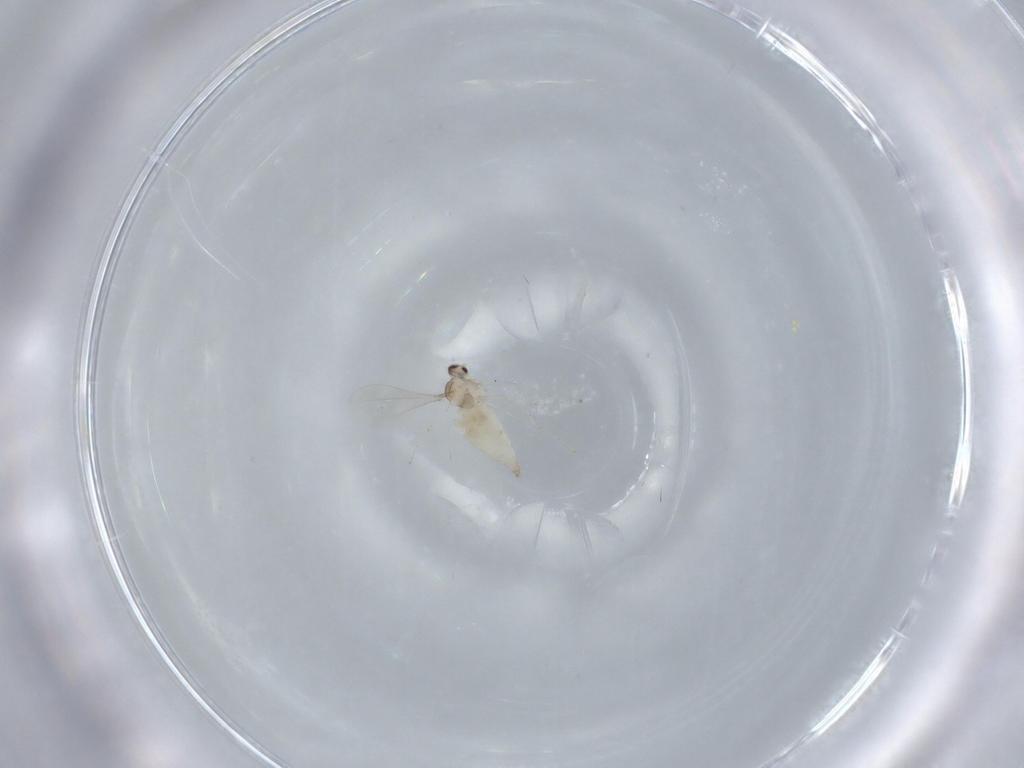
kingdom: Animalia
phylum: Arthropoda
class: Insecta
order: Diptera
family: Cecidomyiidae
